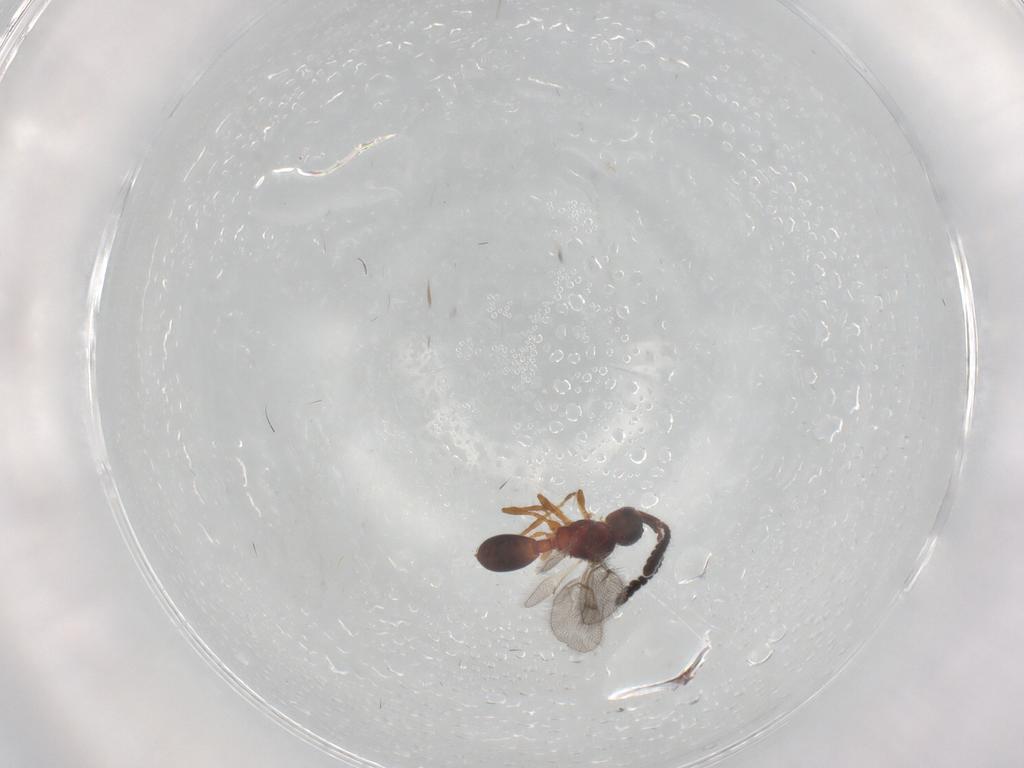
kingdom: Animalia
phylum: Arthropoda
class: Insecta
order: Hymenoptera
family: Diapriidae
